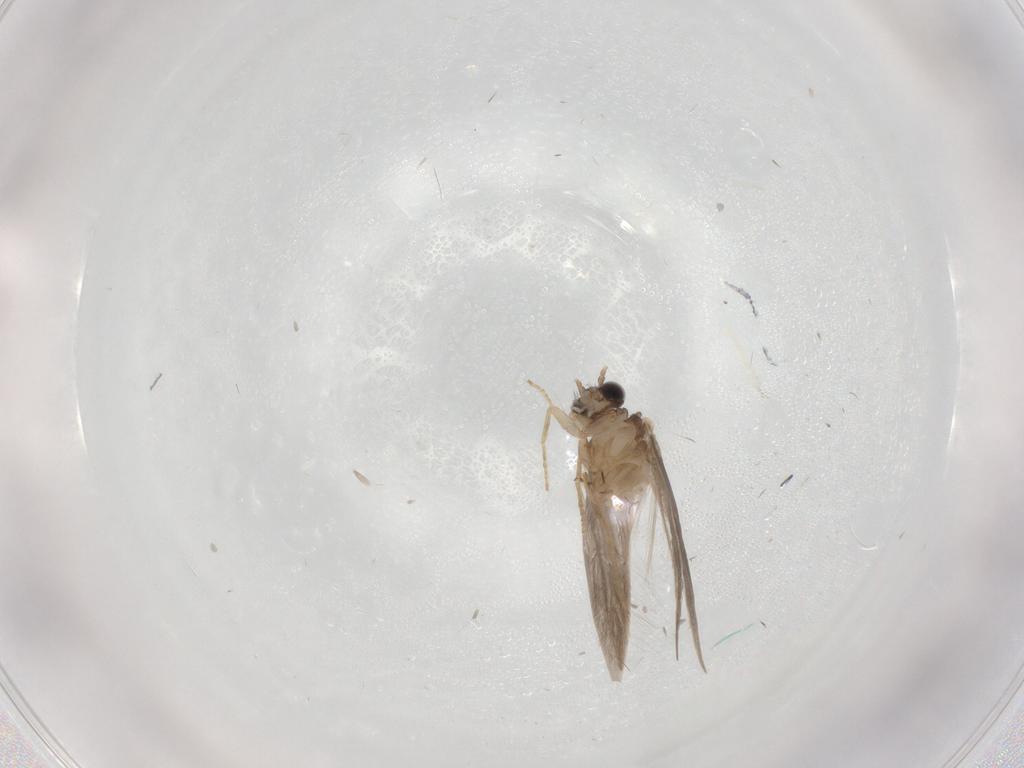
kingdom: Animalia
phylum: Arthropoda
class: Insecta
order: Trichoptera
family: Hydroptilidae
